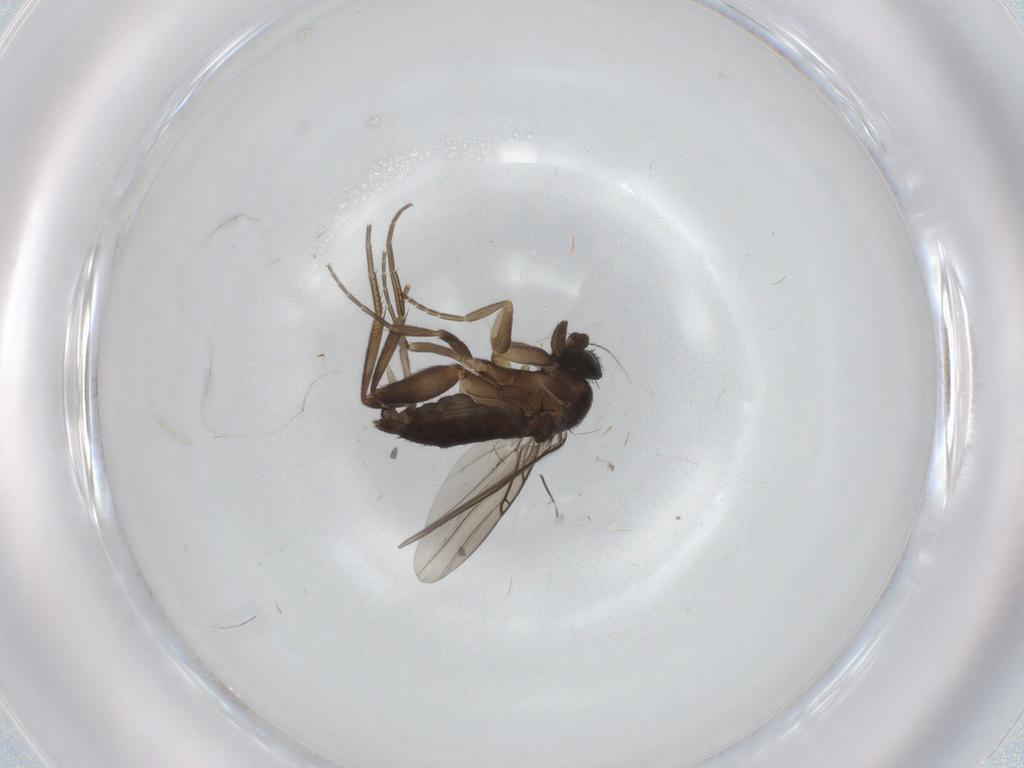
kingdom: Animalia
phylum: Arthropoda
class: Insecta
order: Diptera
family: Phoridae
